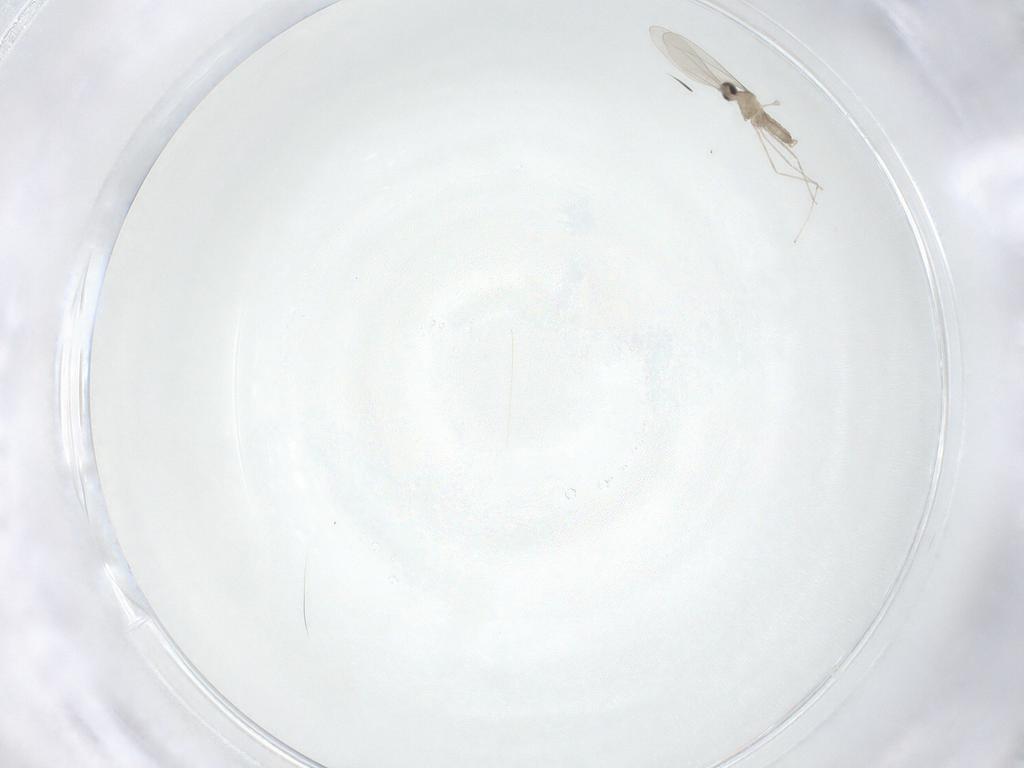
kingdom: Animalia
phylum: Arthropoda
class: Insecta
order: Diptera
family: Cecidomyiidae
